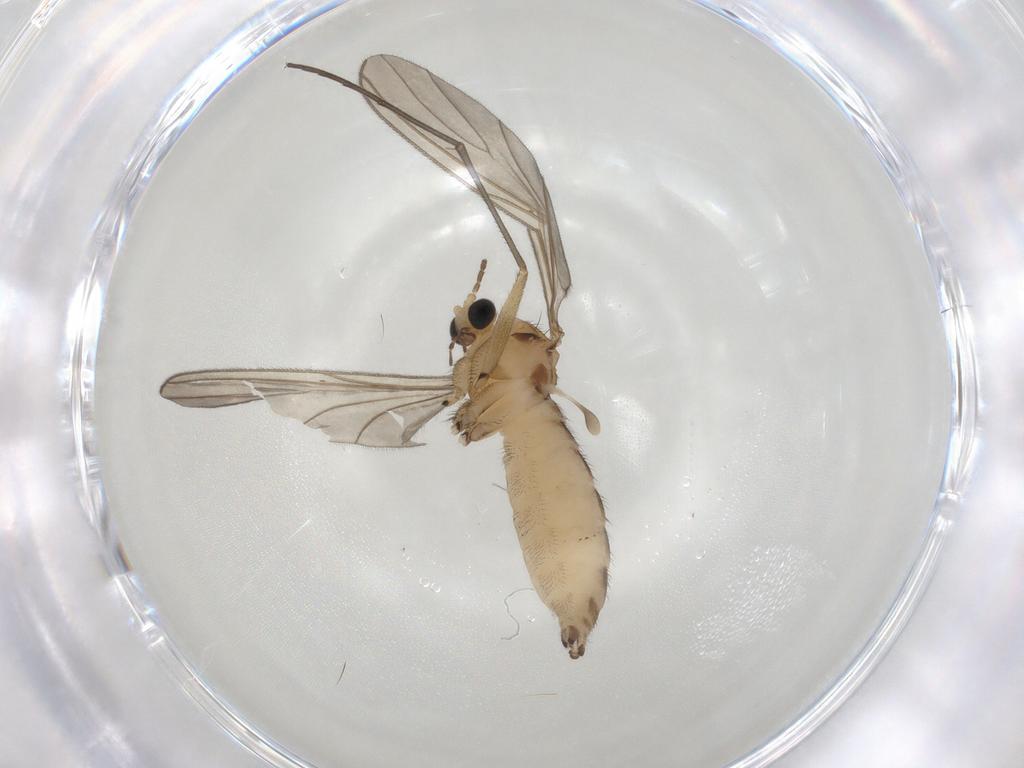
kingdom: Animalia
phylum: Arthropoda
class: Insecta
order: Diptera
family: Sciaridae
